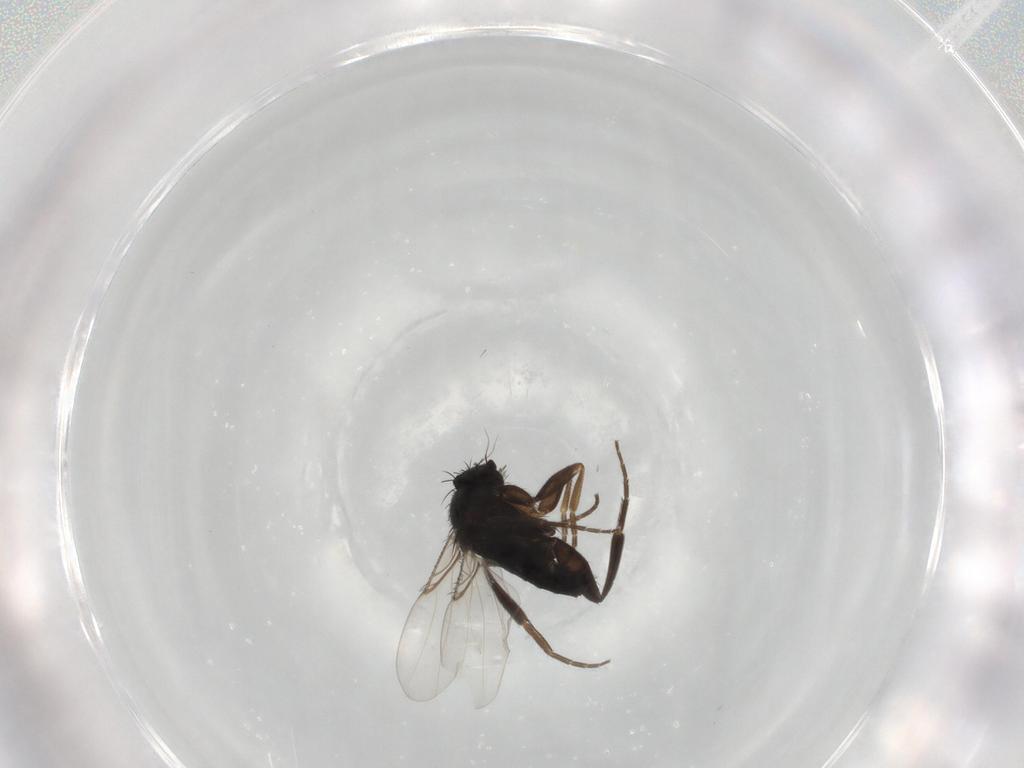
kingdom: Animalia
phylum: Arthropoda
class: Insecta
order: Diptera
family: Phoridae
